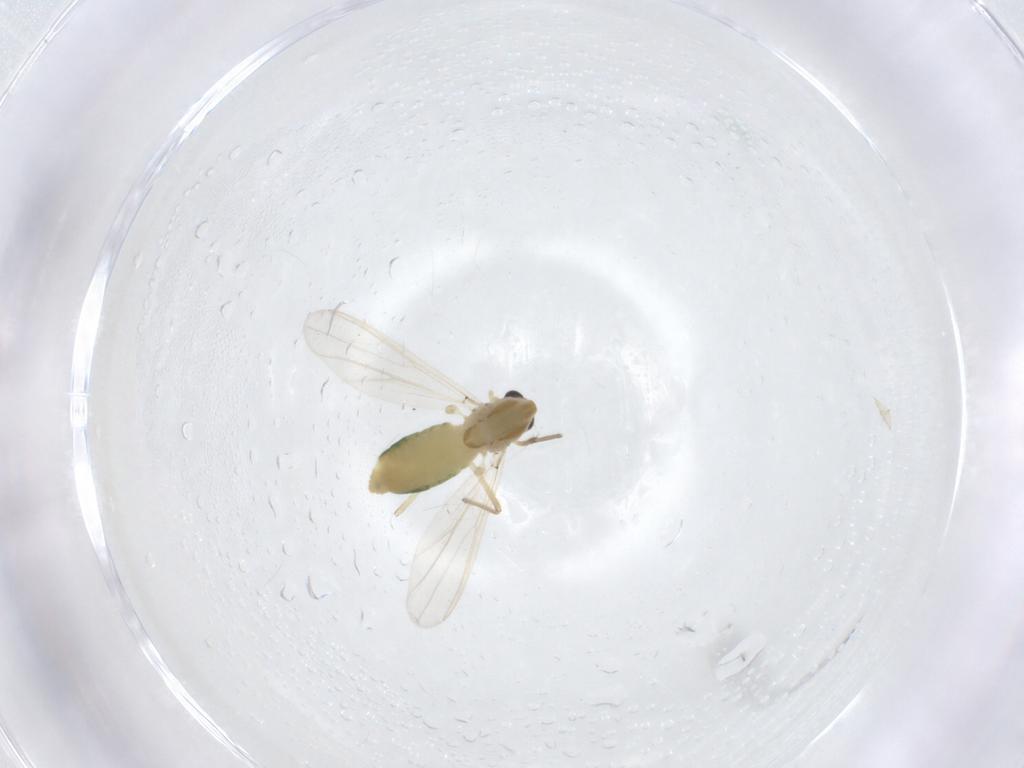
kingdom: Animalia
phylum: Arthropoda
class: Insecta
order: Diptera
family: Chironomidae
